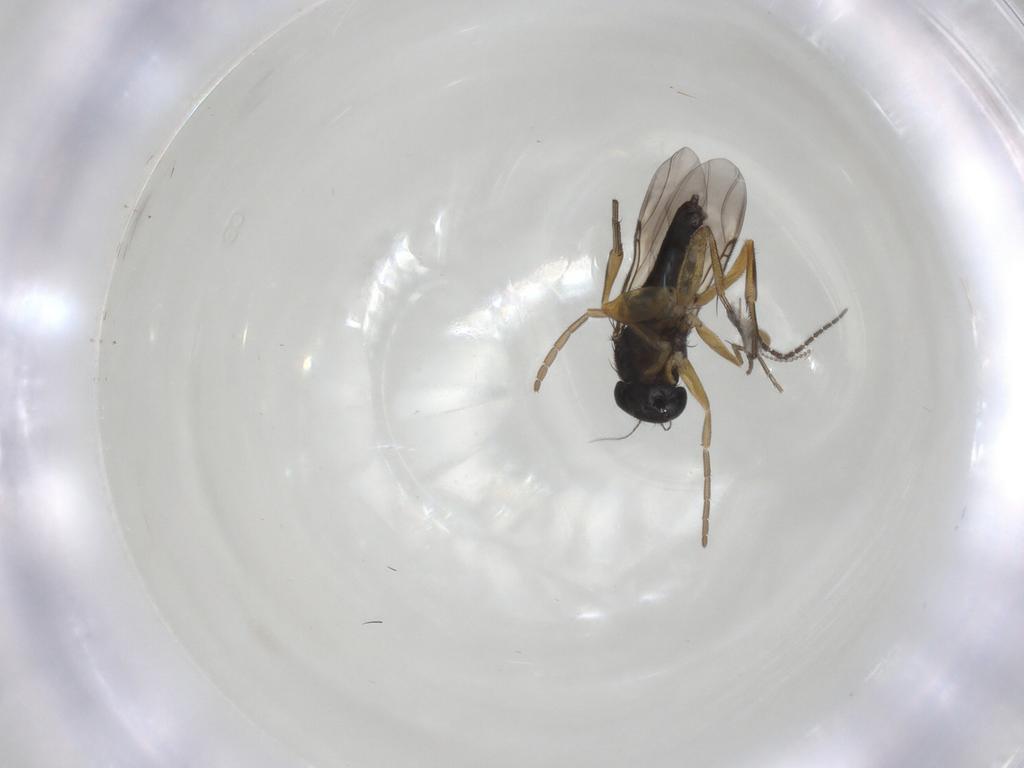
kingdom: Animalia
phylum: Arthropoda
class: Insecta
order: Diptera
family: Sciaridae
